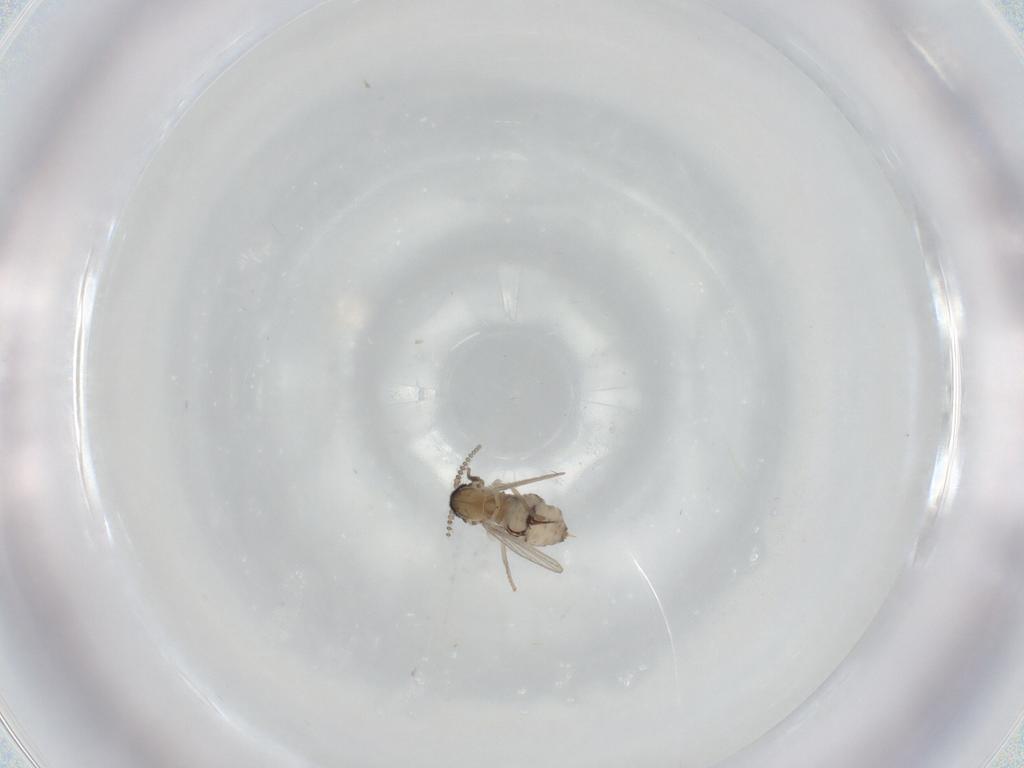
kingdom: Animalia
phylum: Arthropoda
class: Insecta
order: Diptera
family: Psychodidae
